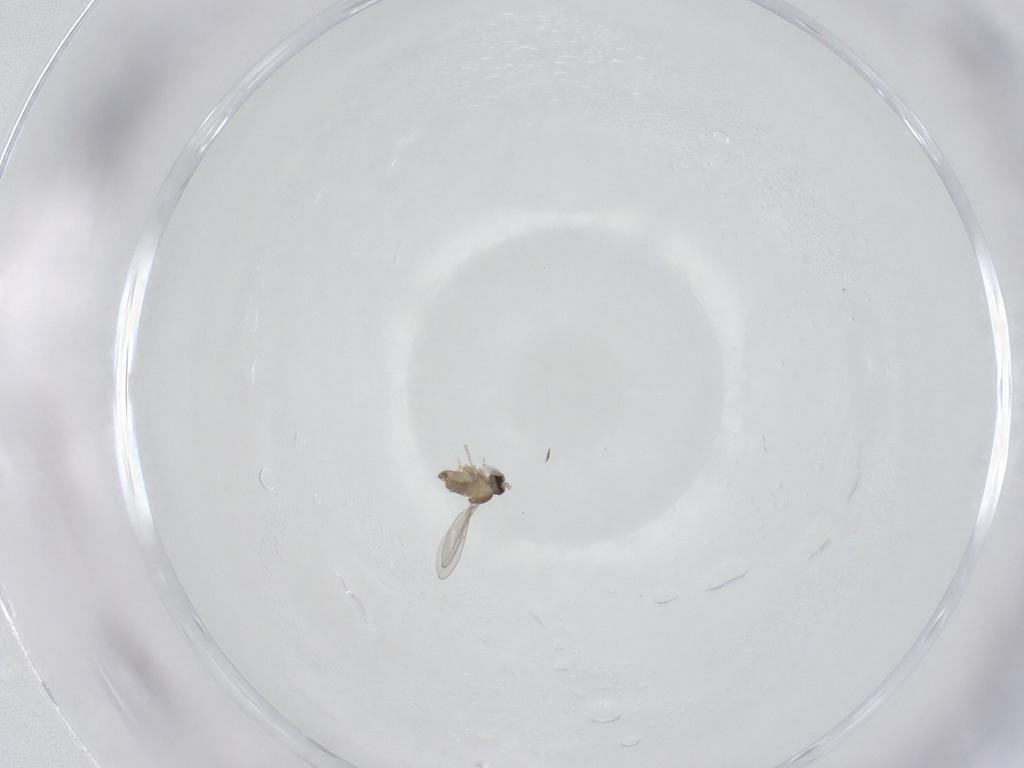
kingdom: Animalia
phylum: Arthropoda
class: Insecta
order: Diptera
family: Cecidomyiidae
